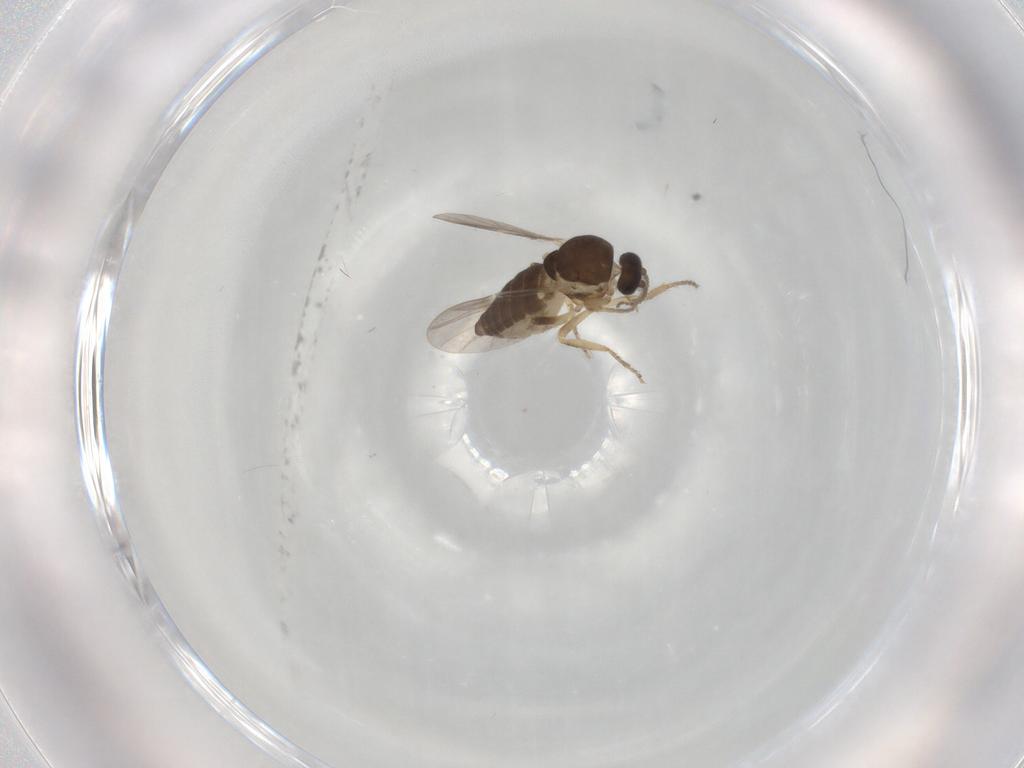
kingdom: Animalia
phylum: Arthropoda
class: Insecta
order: Diptera
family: Ceratopogonidae
